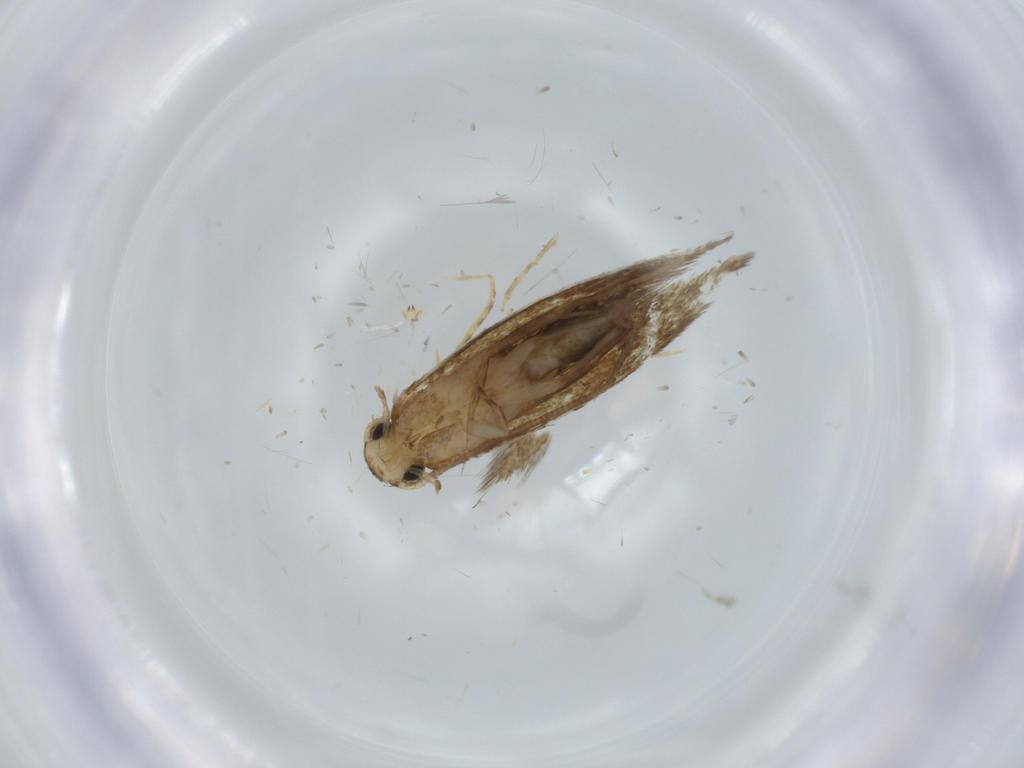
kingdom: Animalia
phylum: Arthropoda
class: Insecta
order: Lepidoptera
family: Tineidae
